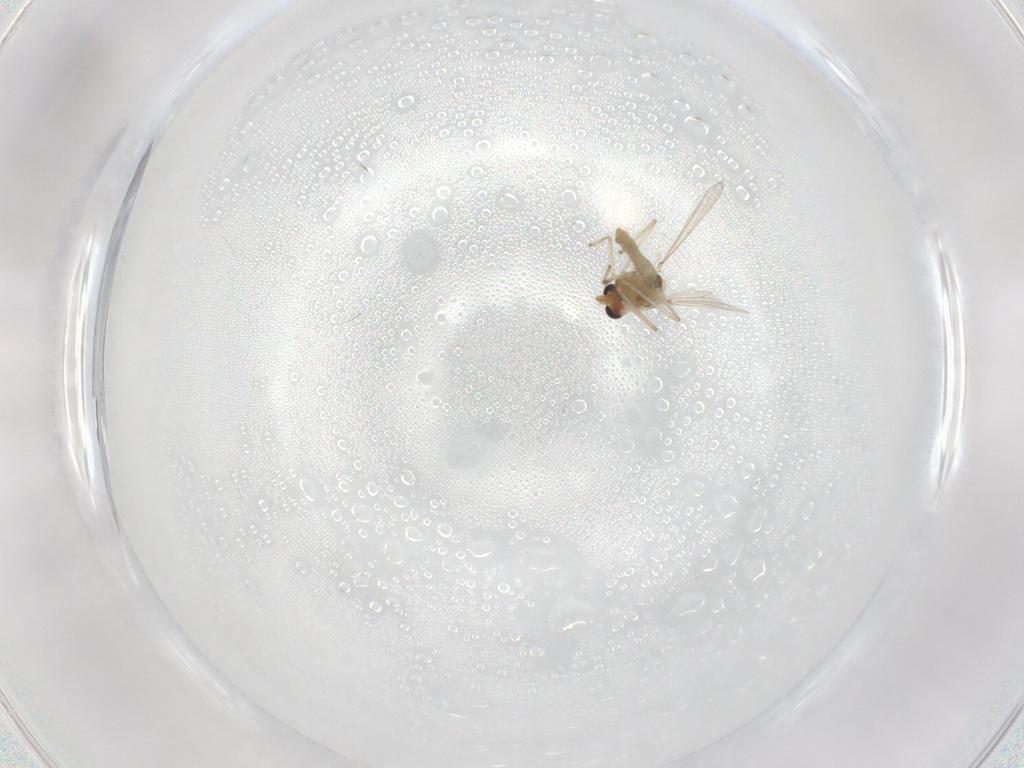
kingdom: Animalia
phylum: Arthropoda
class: Insecta
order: Diptera
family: Chironomidae
